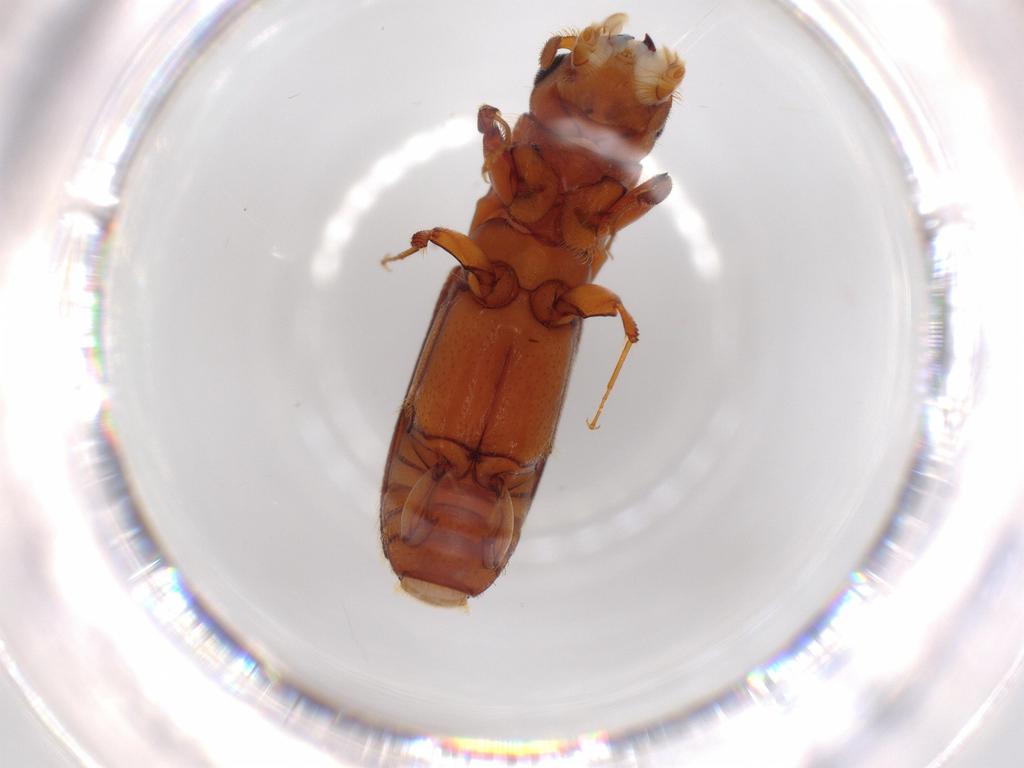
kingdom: Animalia
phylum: Arthropoda
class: Insecta
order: Coleoptera
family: Curculionidae
